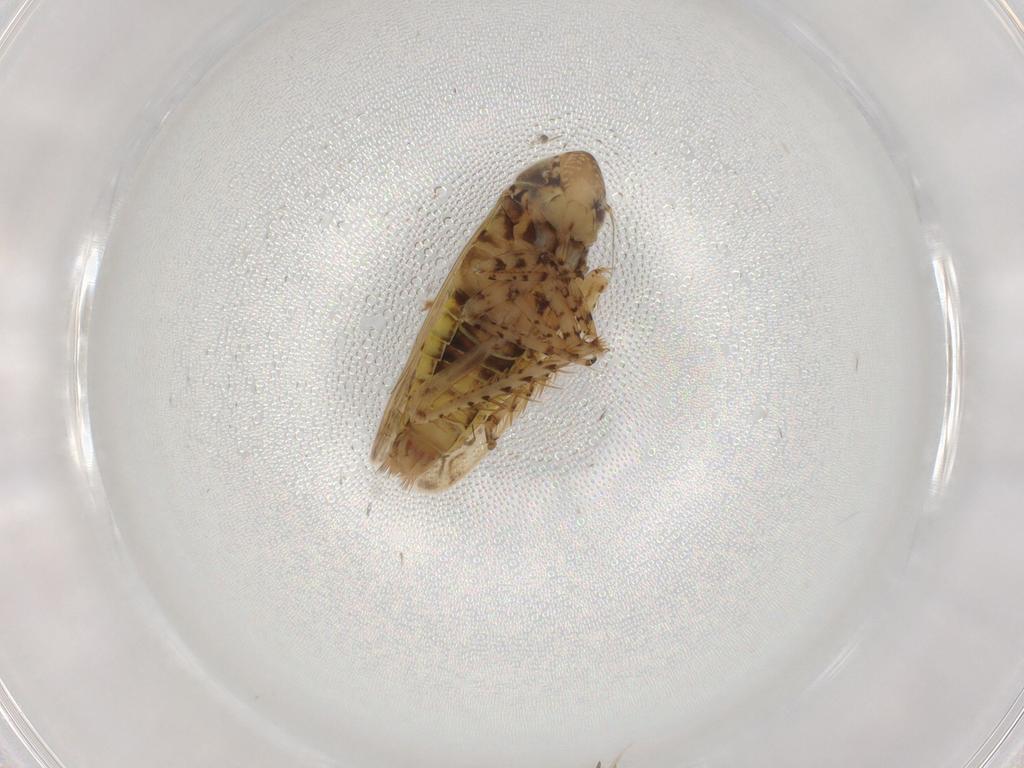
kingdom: Animalia
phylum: Arthropoda
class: Insecta
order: Hemiptera
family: Cicadellidae
